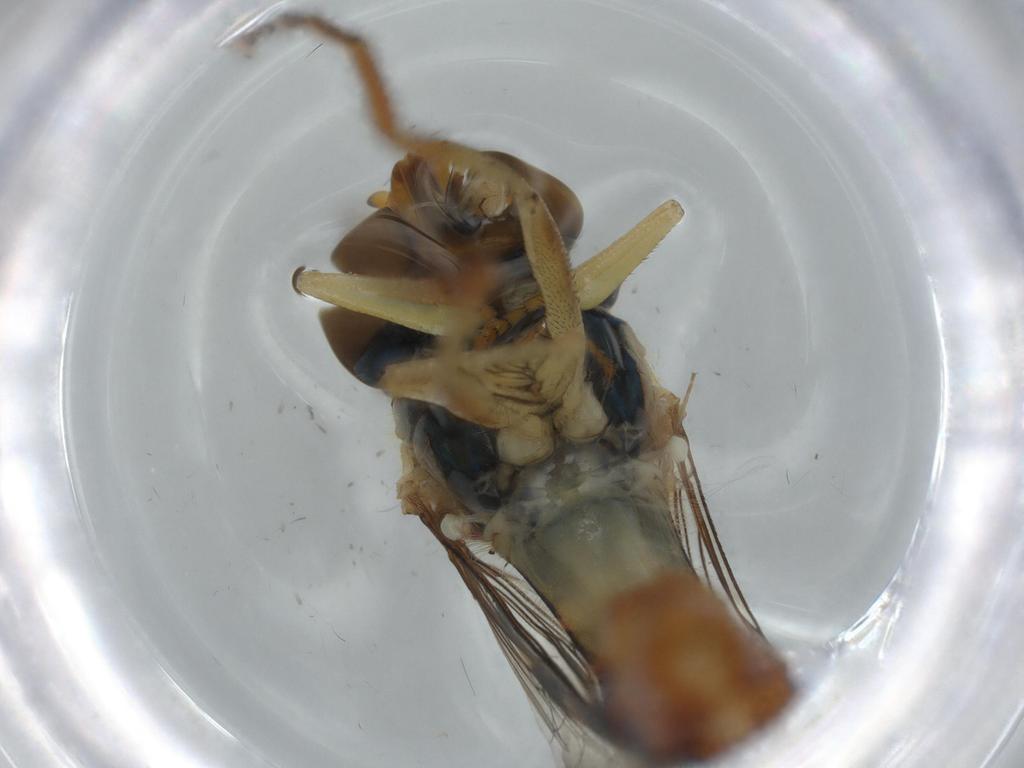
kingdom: Animalia
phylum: Arthropoda
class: Insecta
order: Diptera
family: Syrphidae
